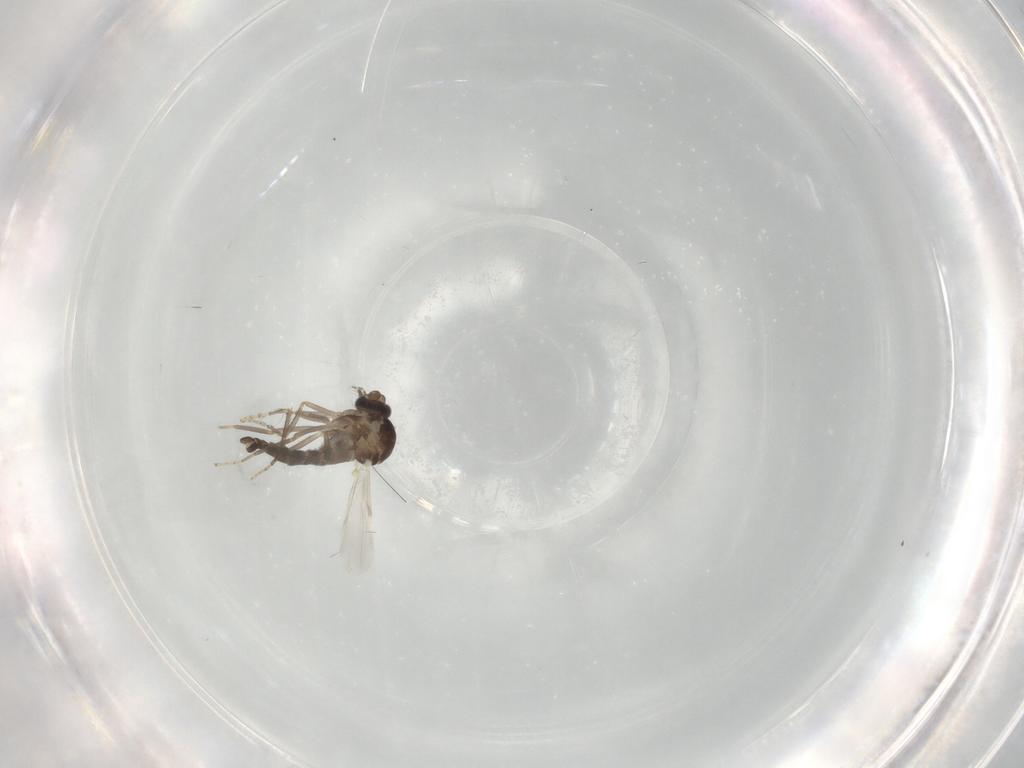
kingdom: Animalia
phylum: Arthropoda
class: Insecta
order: Diptera
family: Ceratopogonidae
